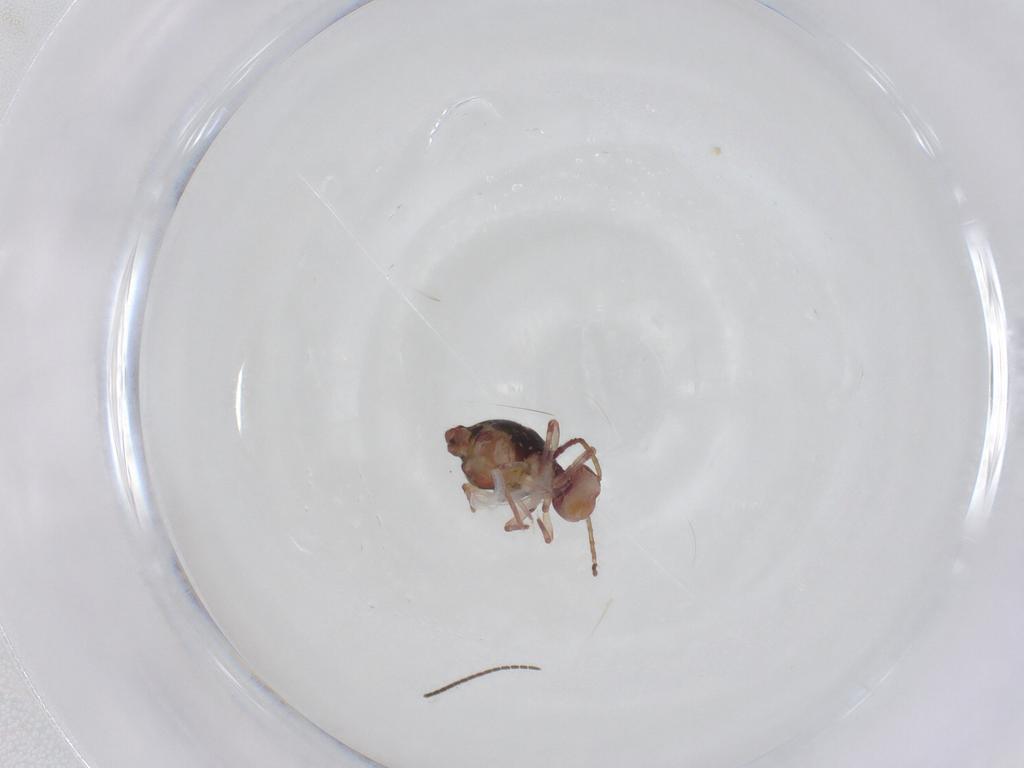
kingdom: Animalia
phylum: Arthropoda
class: Collembola
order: Symphypleona
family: Dicyrtomidae
